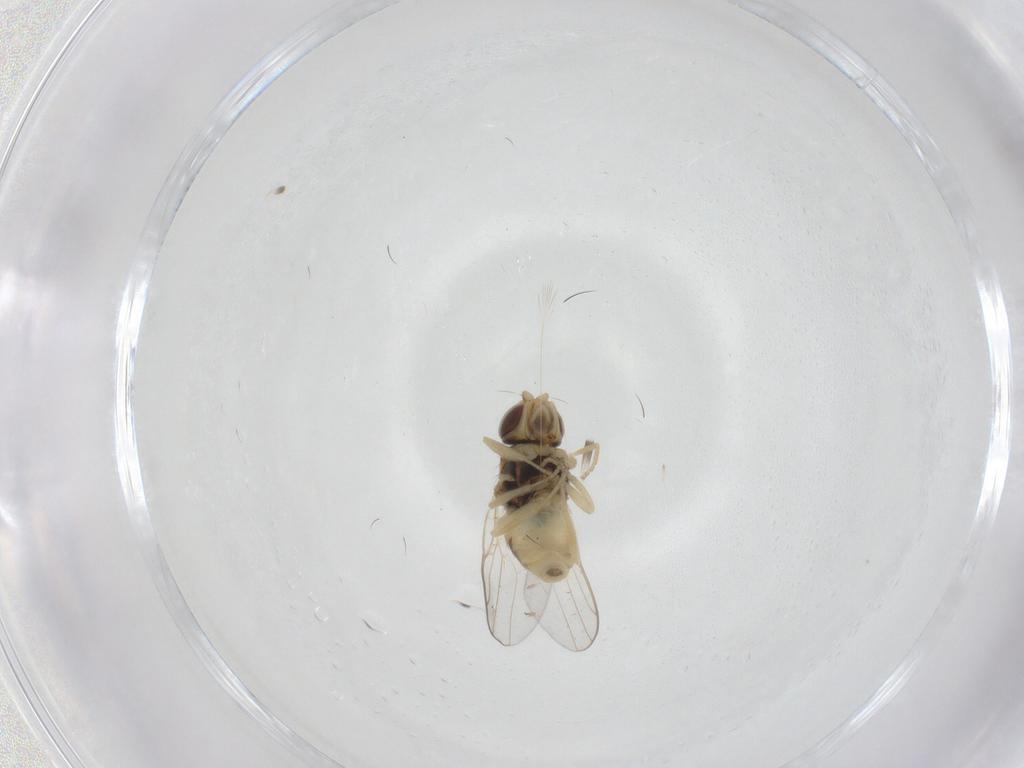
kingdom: Animalia
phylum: Arthropoda
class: Insecta
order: Diptera
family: Chloropidae
